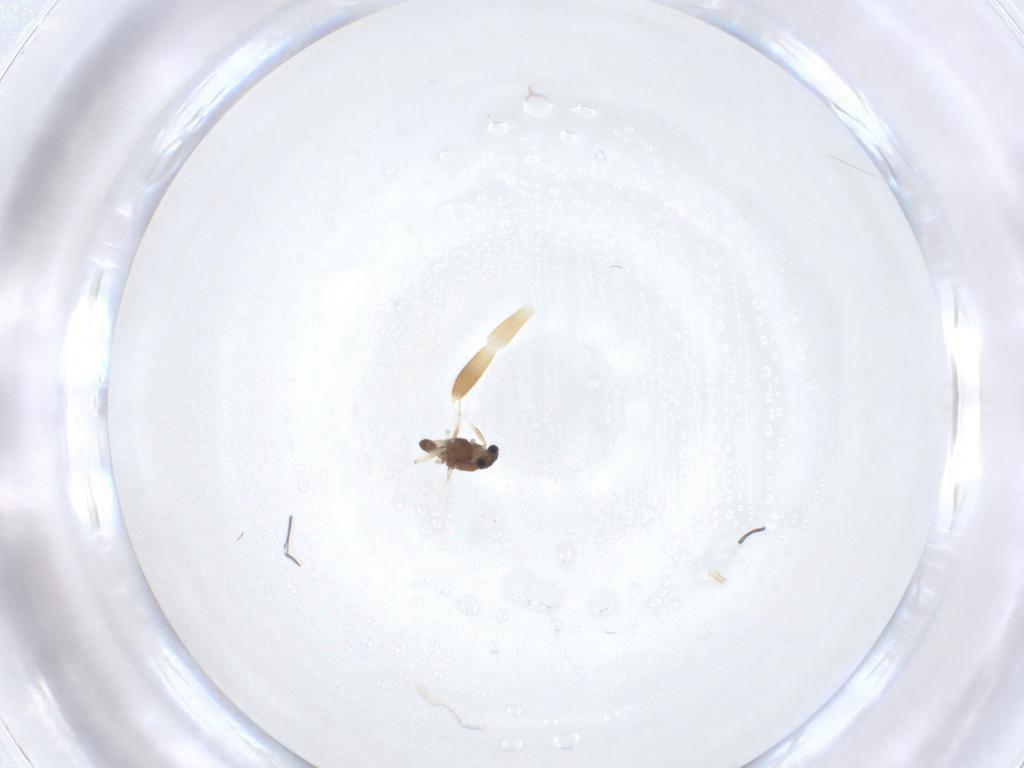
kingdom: Animalia
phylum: Arthropoda
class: Insecta
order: Diptera
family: Chironomidae
